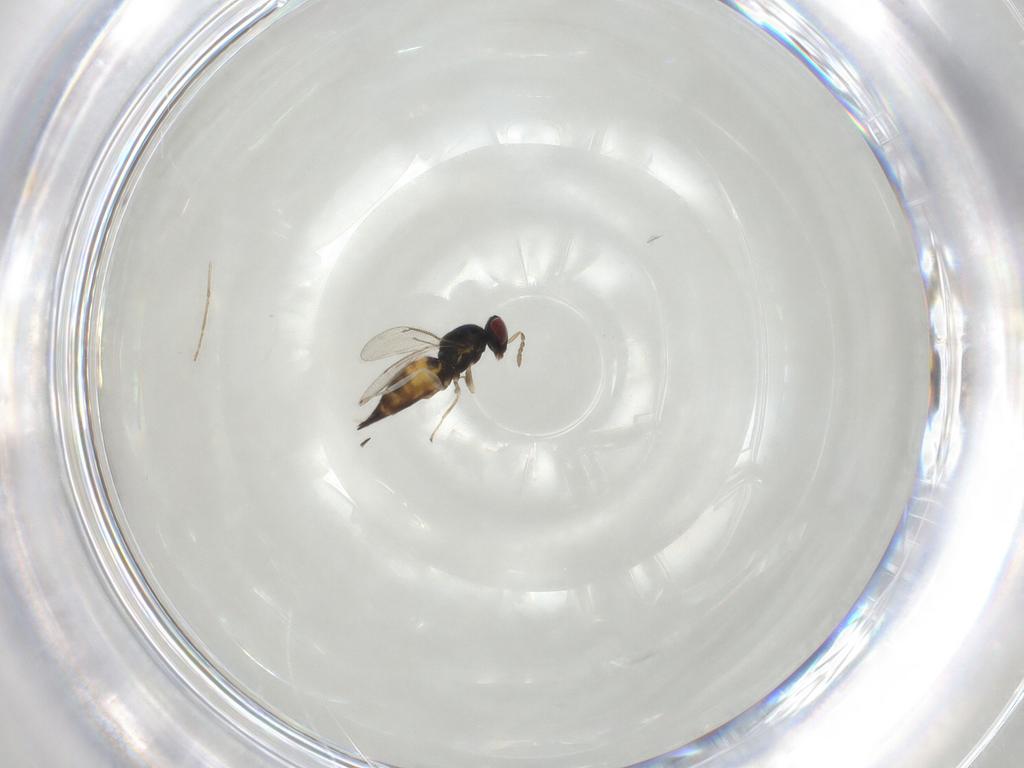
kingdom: Animalia
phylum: Arthropoda
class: Insecta
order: Hymenoptera
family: Eulophidae
